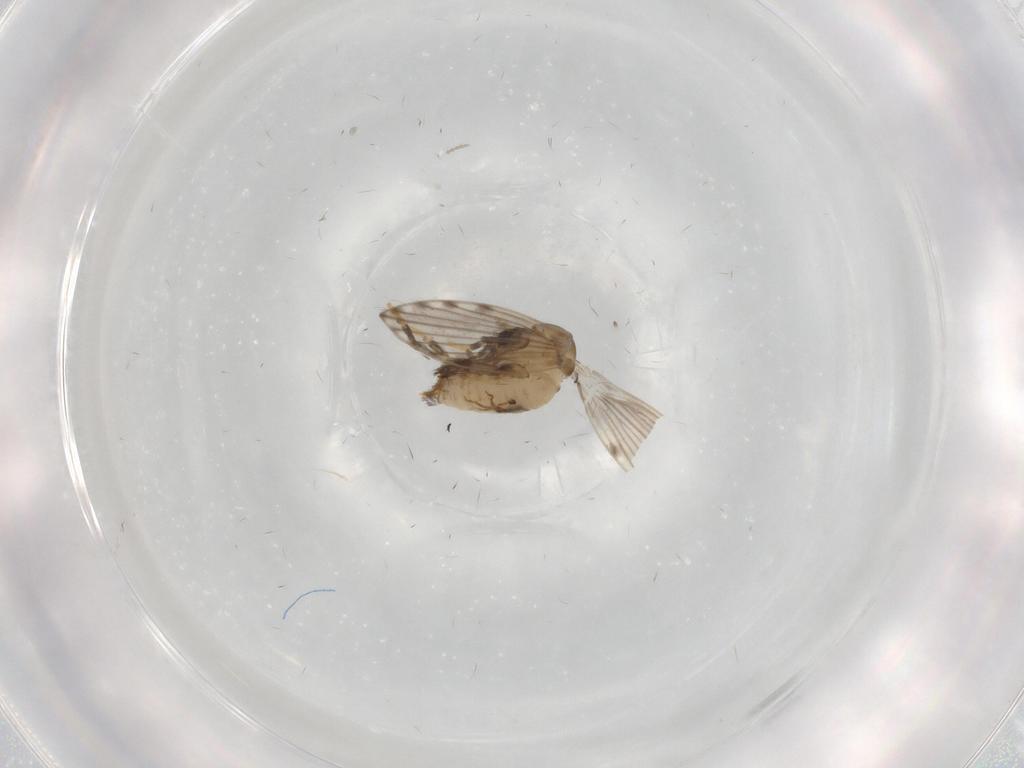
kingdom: Animalia
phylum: Arthropoda
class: Insecta
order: Diptera
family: Psychodidae
